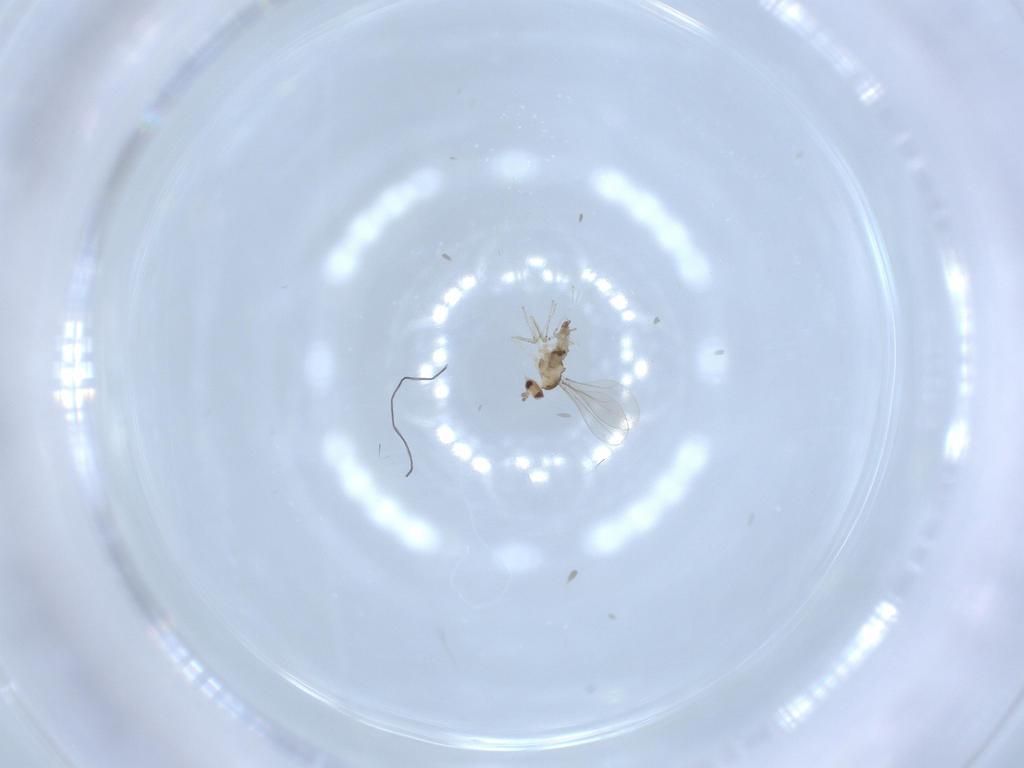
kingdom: Animalia
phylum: Arthropoda
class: Insecta
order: Diptera
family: Cecidomyiidae
